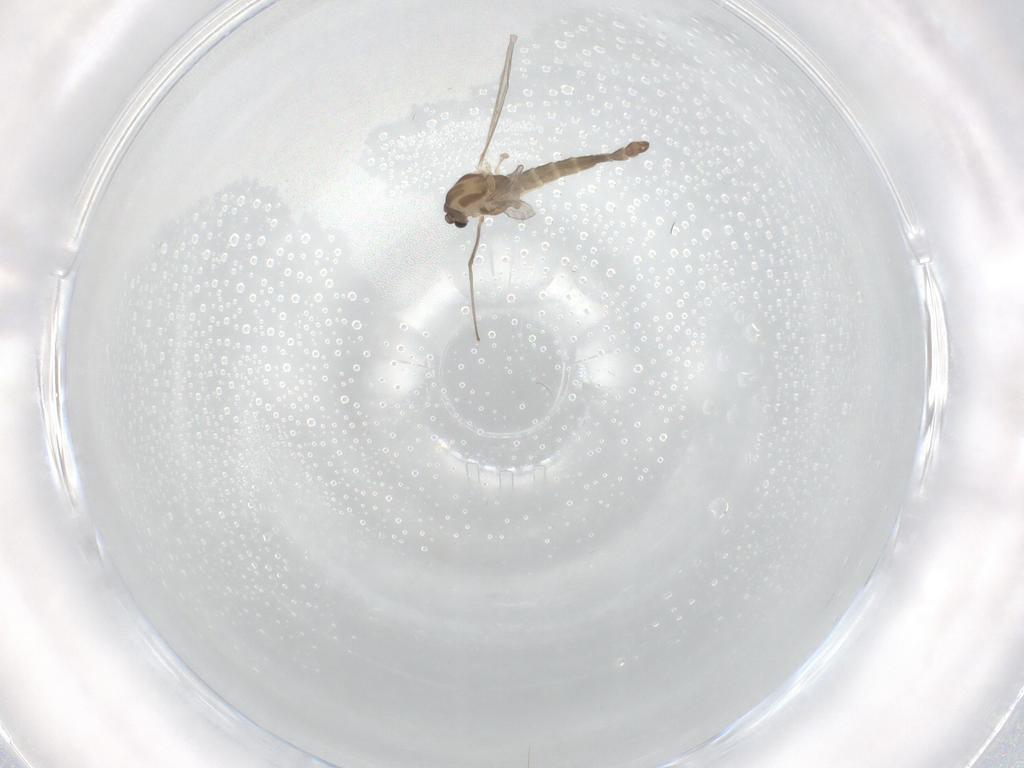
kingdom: Animalia
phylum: Arthropoda
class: Insecta
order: Diptera
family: Chironomidae
